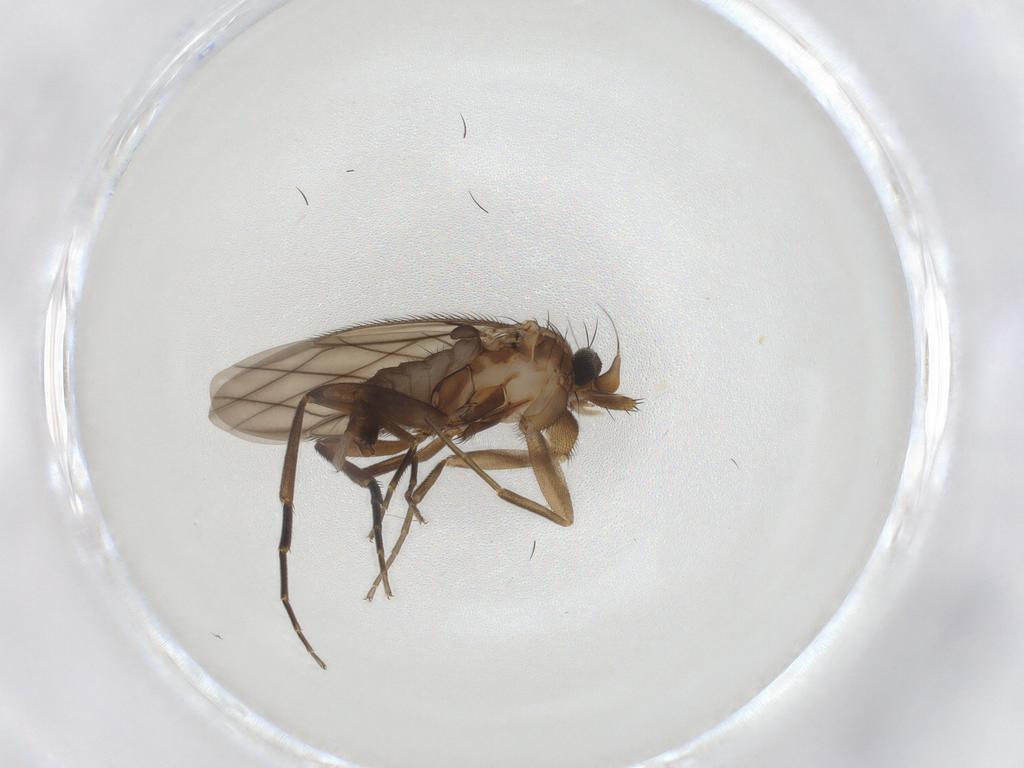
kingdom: Animalia
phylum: Arthropoda
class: Insecta
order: Diptera
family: Phoridae
